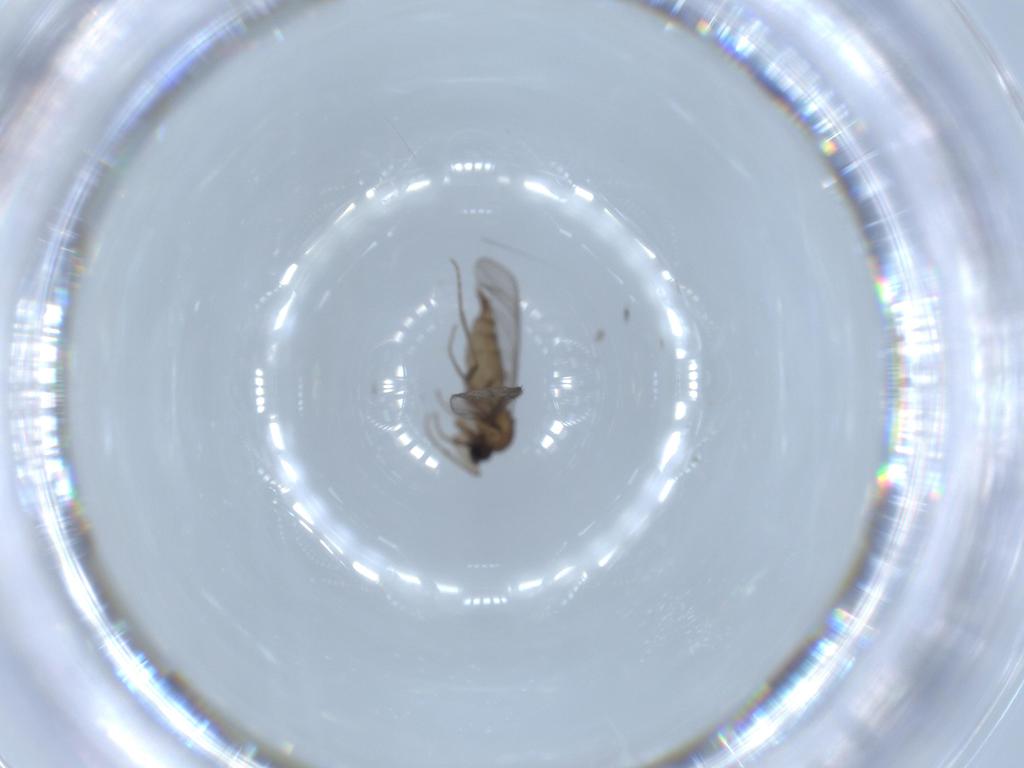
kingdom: Animalia
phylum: Arthropoda
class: Insecta
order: Diptera
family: Sciaridae
